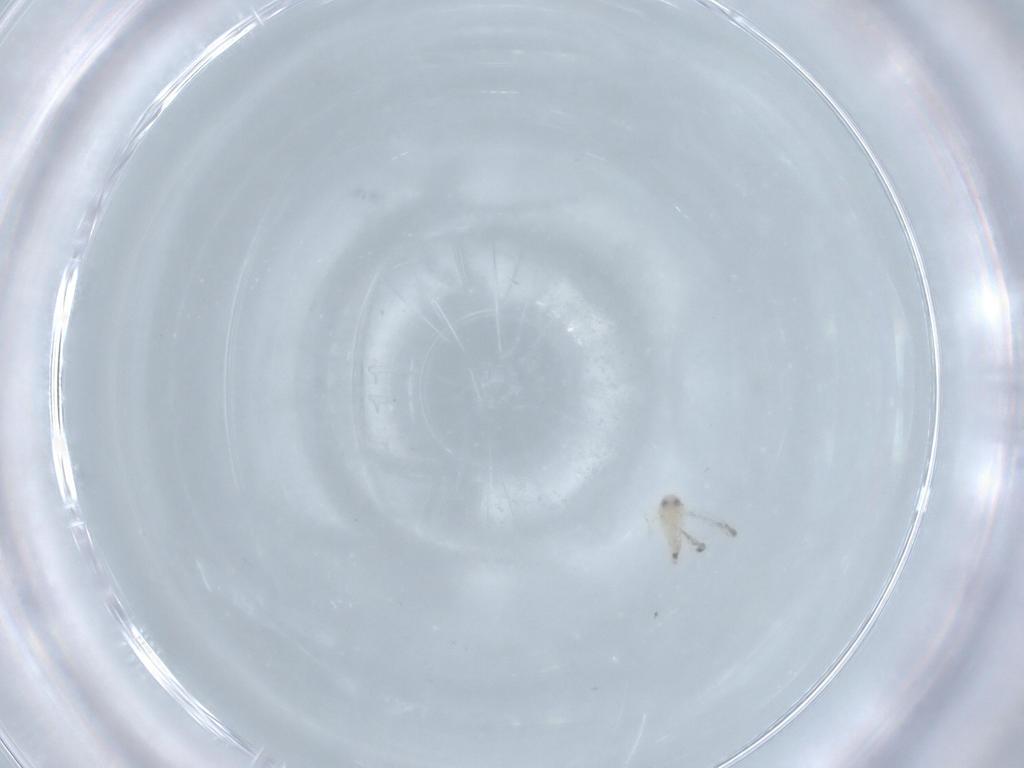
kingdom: Animalia
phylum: Arthropoda
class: Insecta
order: Hemiptera
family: Aleyrodidae
